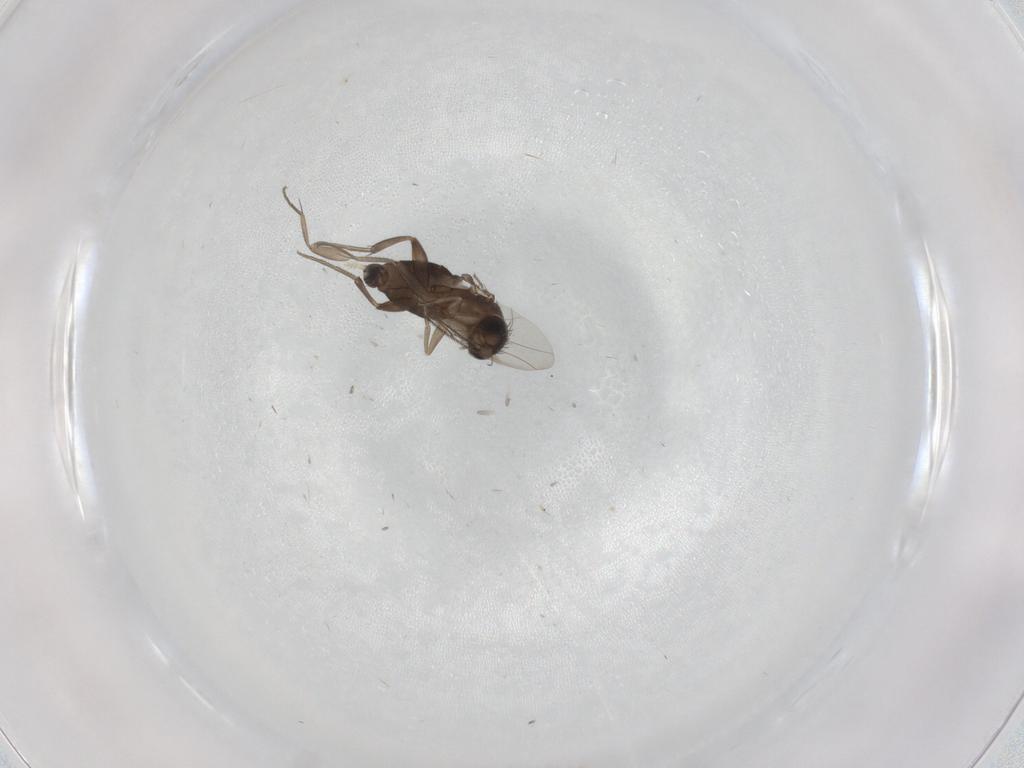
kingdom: Animalia
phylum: Arthropoda
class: Insecta
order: Diptera
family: Phoridae
